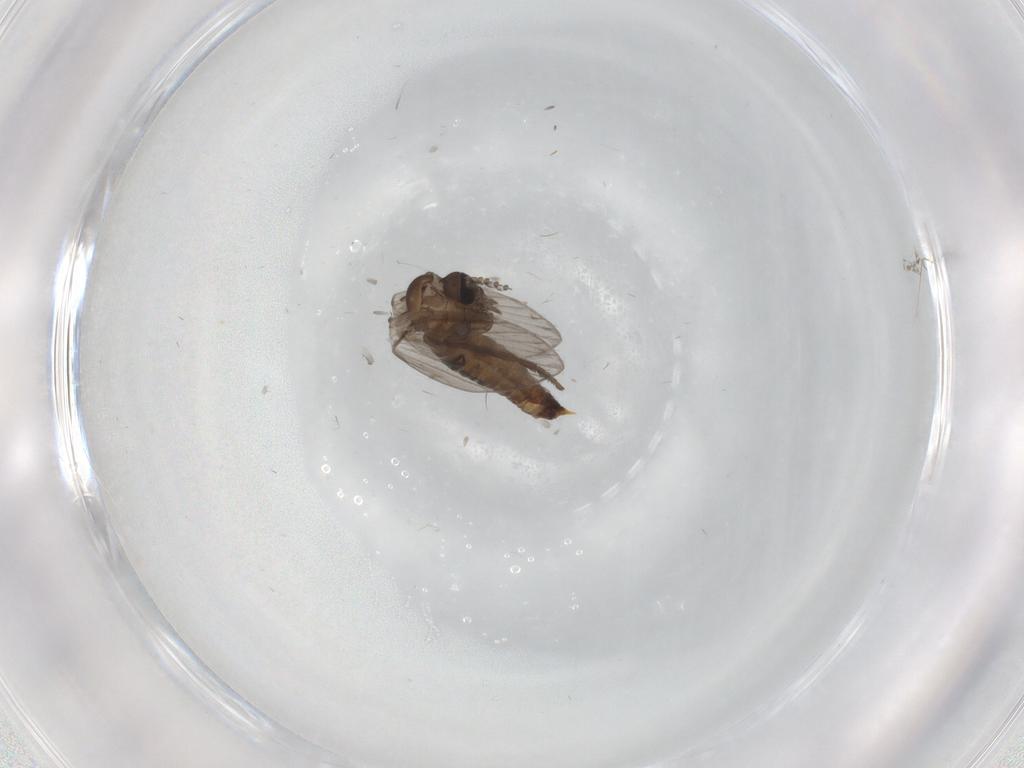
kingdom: Animalia
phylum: Arthropoda
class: Insecta
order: Diptera
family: Psychodidae
